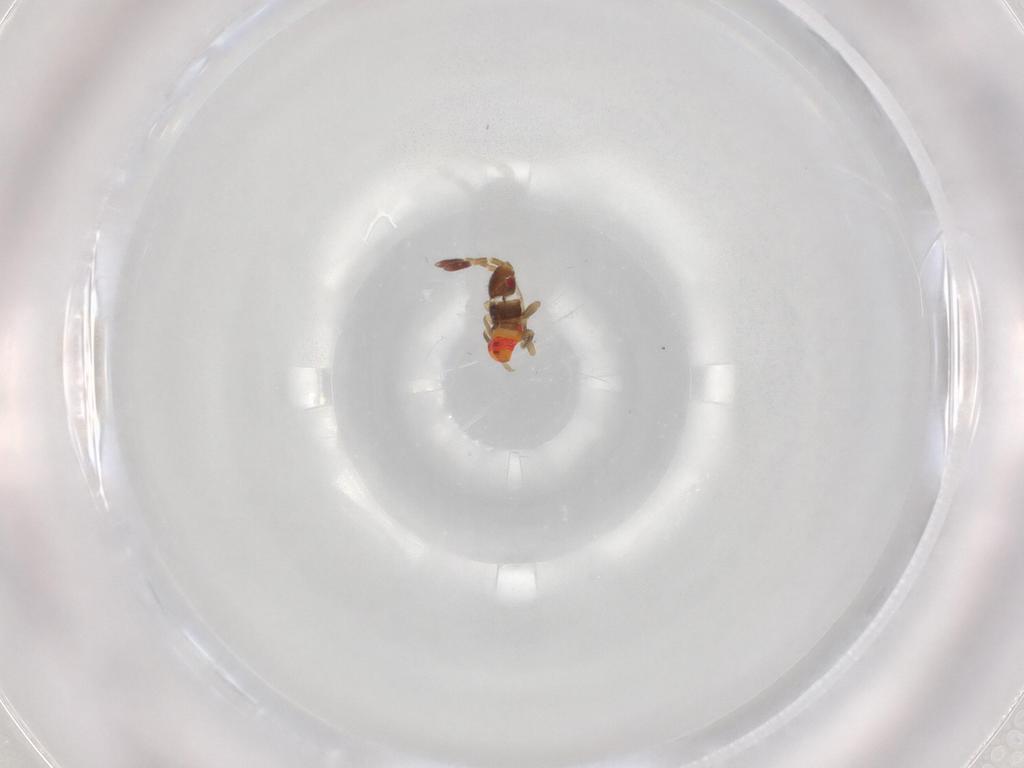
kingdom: Animalia
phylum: Arthropoda
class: Insecta
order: Hemiptera
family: Rhyparochromidae
